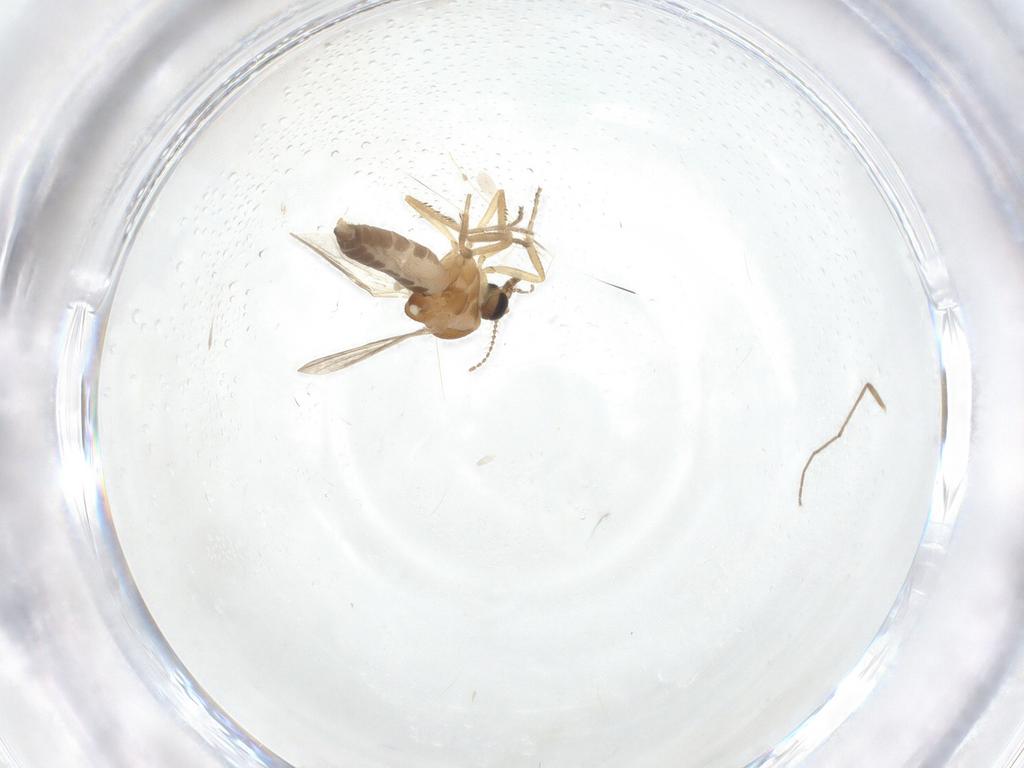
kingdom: Animalia
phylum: Arthropoda
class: Insecta
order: Diptera
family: Ceratopogonidae
